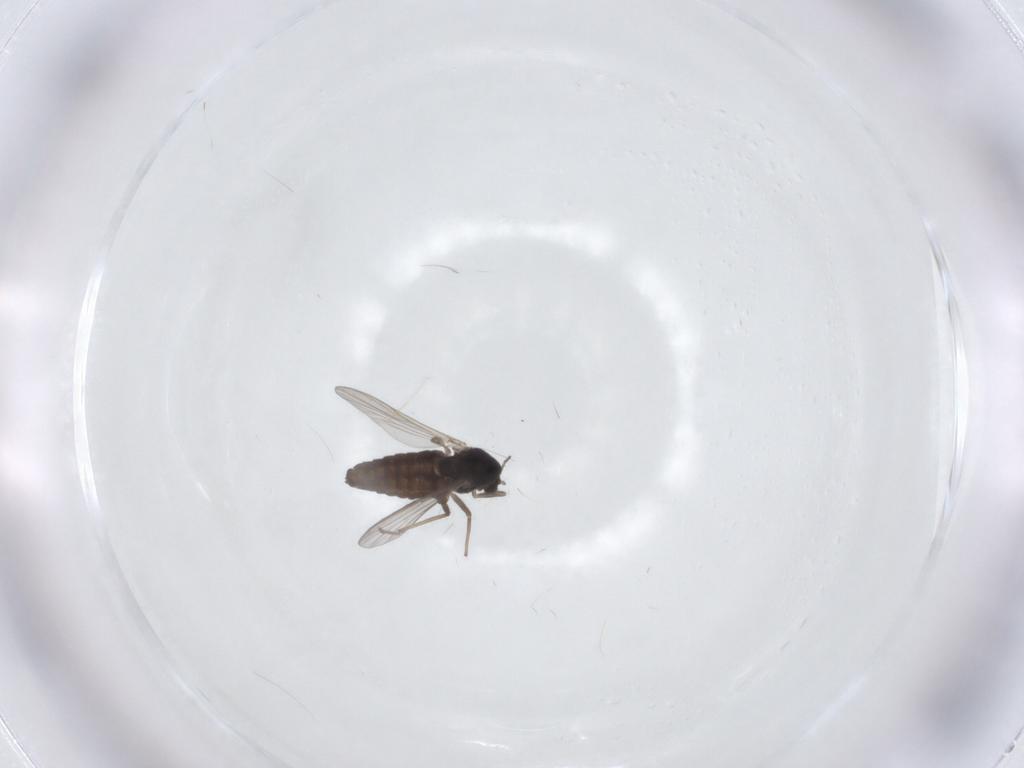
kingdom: Animalia
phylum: Arthropoda
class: Insecta
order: Diptera
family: Chironomidae
